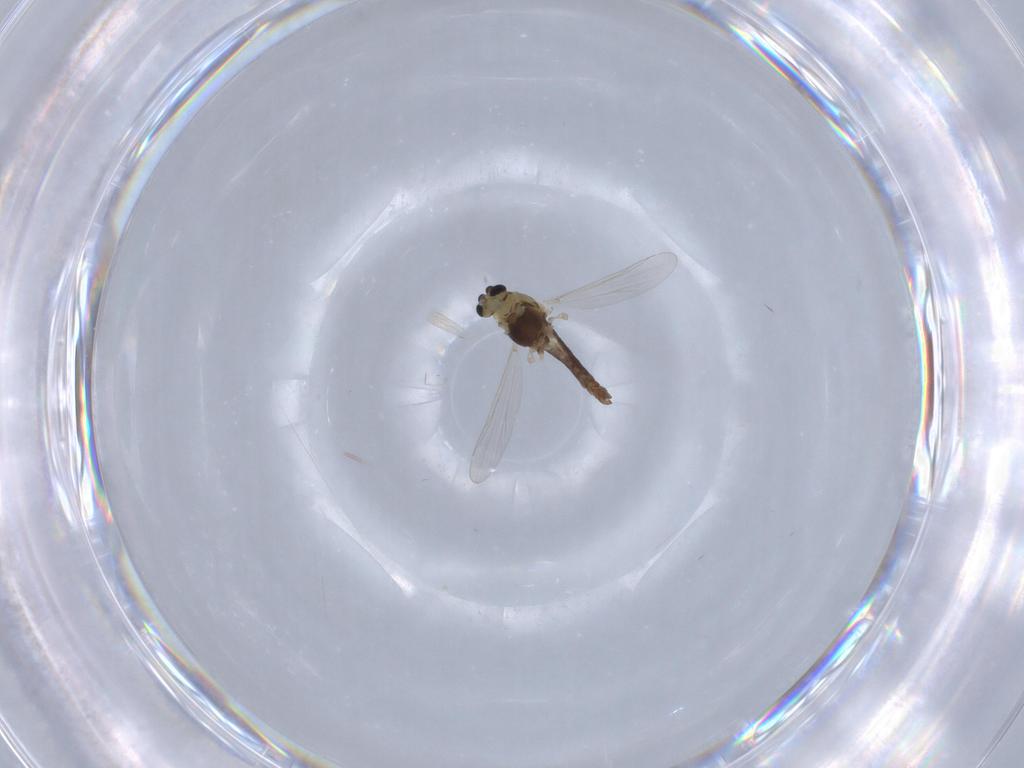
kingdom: Animalia
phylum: Arthropoda
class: Insecta
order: Diptera
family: Chironomidae
